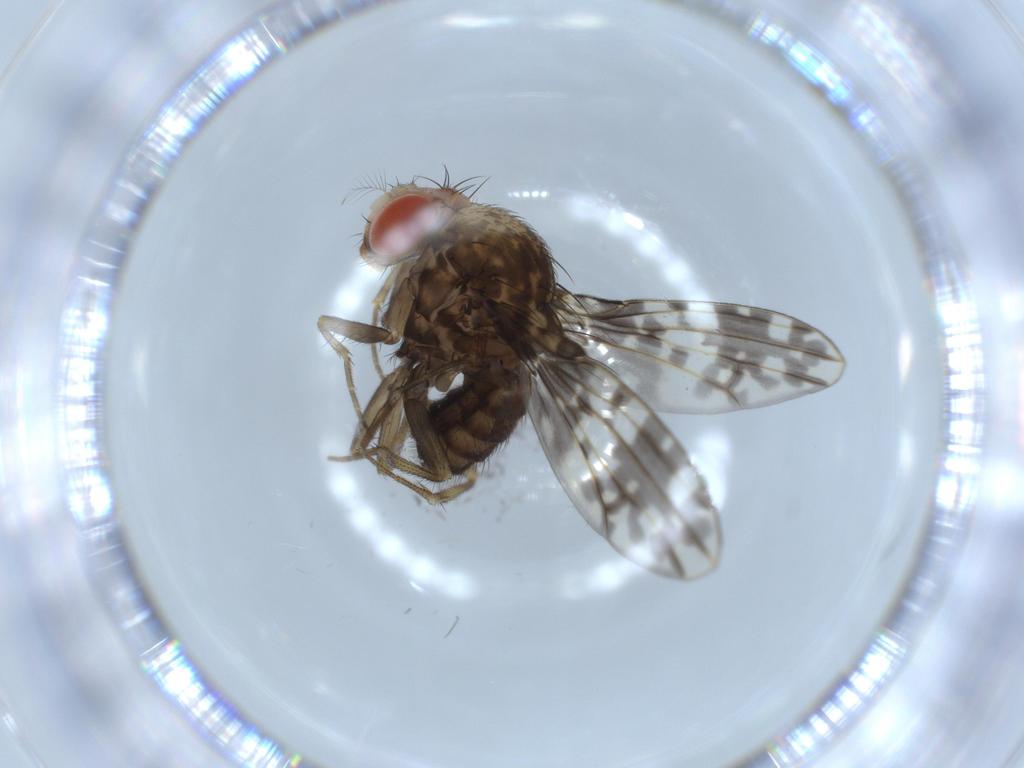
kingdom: Animalia
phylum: Arthropoda
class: Insecta
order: Diptera
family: Drosophilidae
